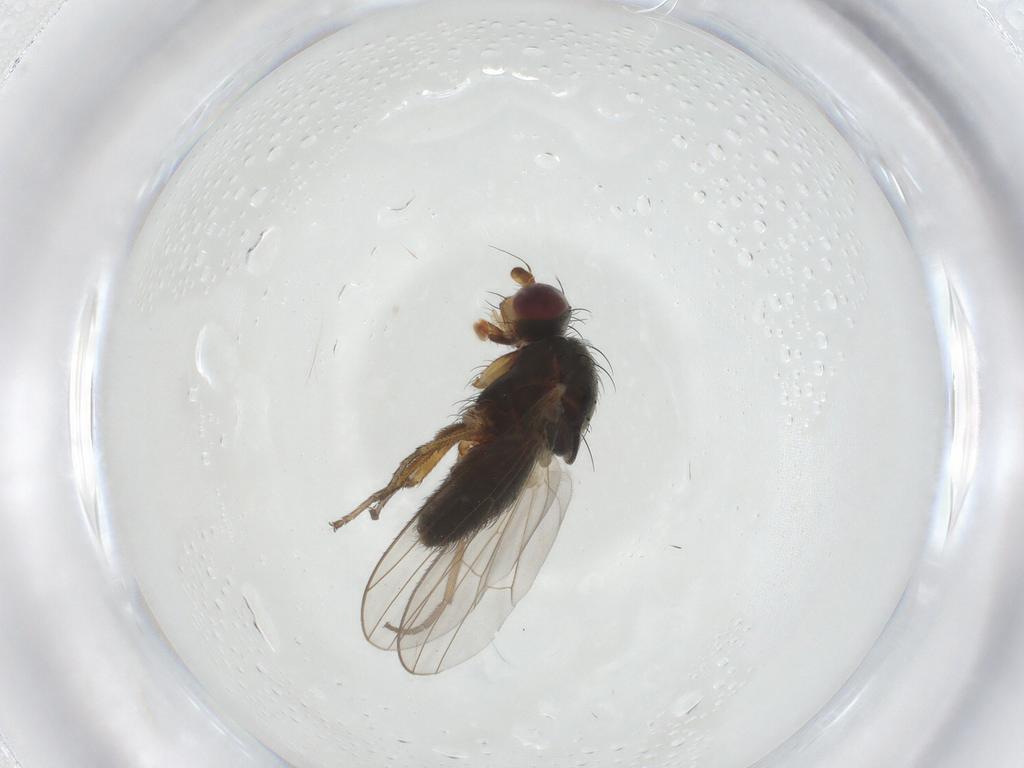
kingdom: Animalia
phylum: Arthropoda
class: Insecta
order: Diptera
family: Heleomyzidae
